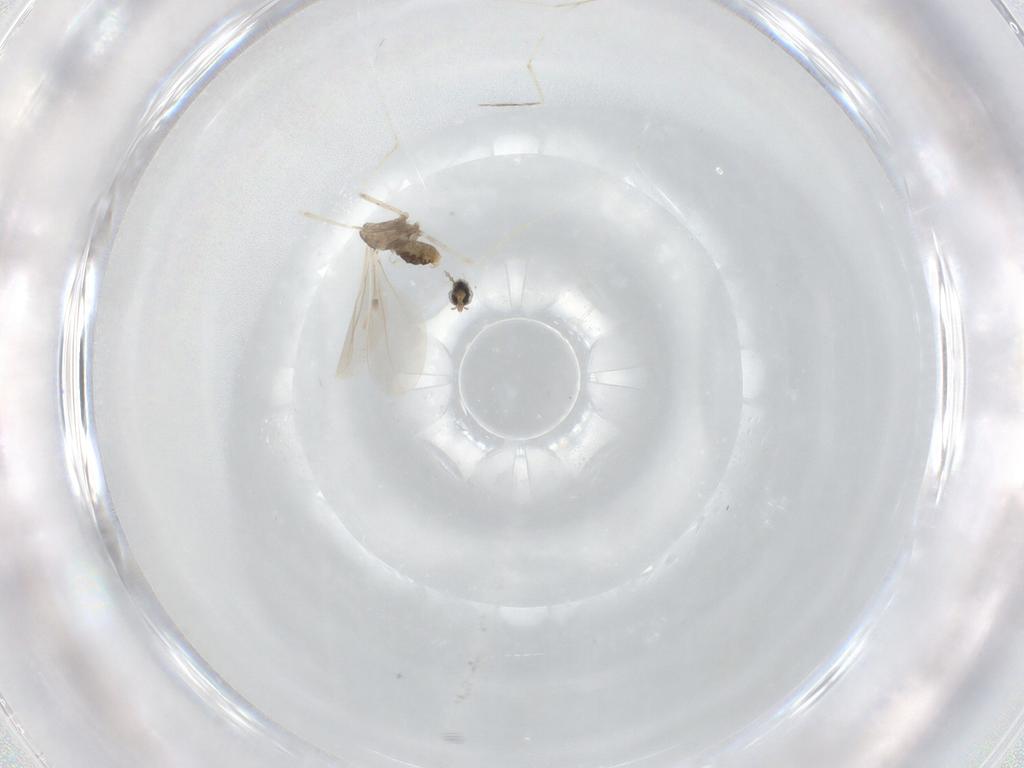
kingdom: Animalia
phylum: Arthropoda
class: Insecta
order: Diptera
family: Cecidomyiidae
